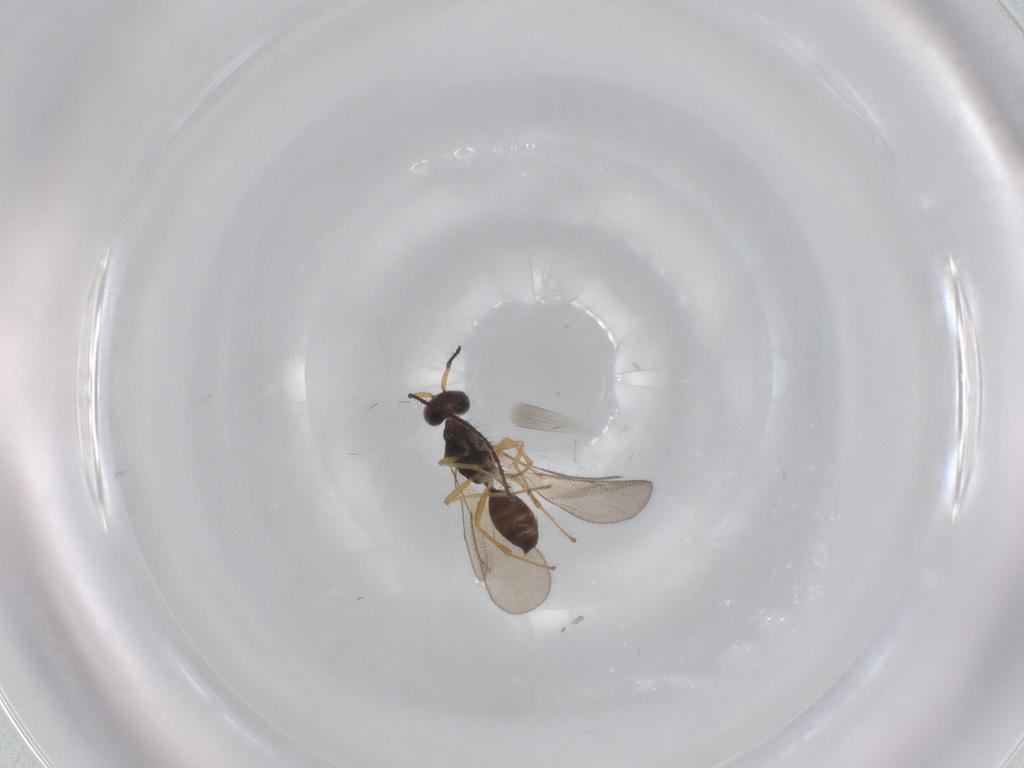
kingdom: Animalia
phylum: Arthropoda
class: Insecta
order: Hymenoptera
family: Diparidae
